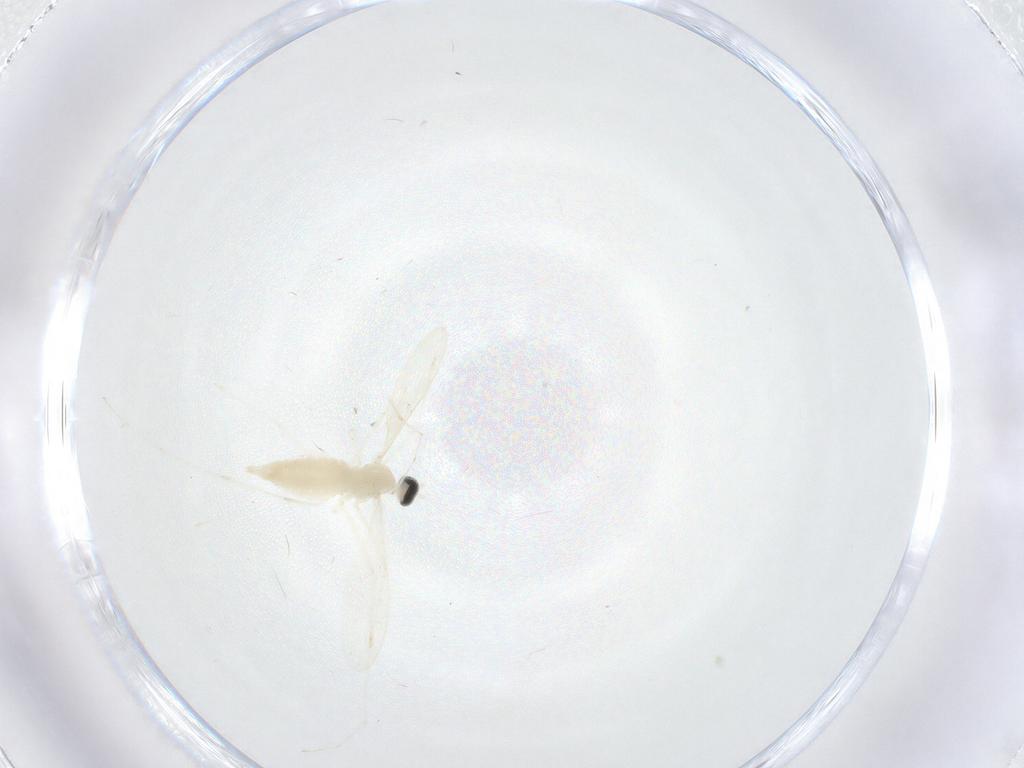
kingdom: Animalia
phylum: Arthropoda
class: Insecta
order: Diptera
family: Cecidomyiidae
